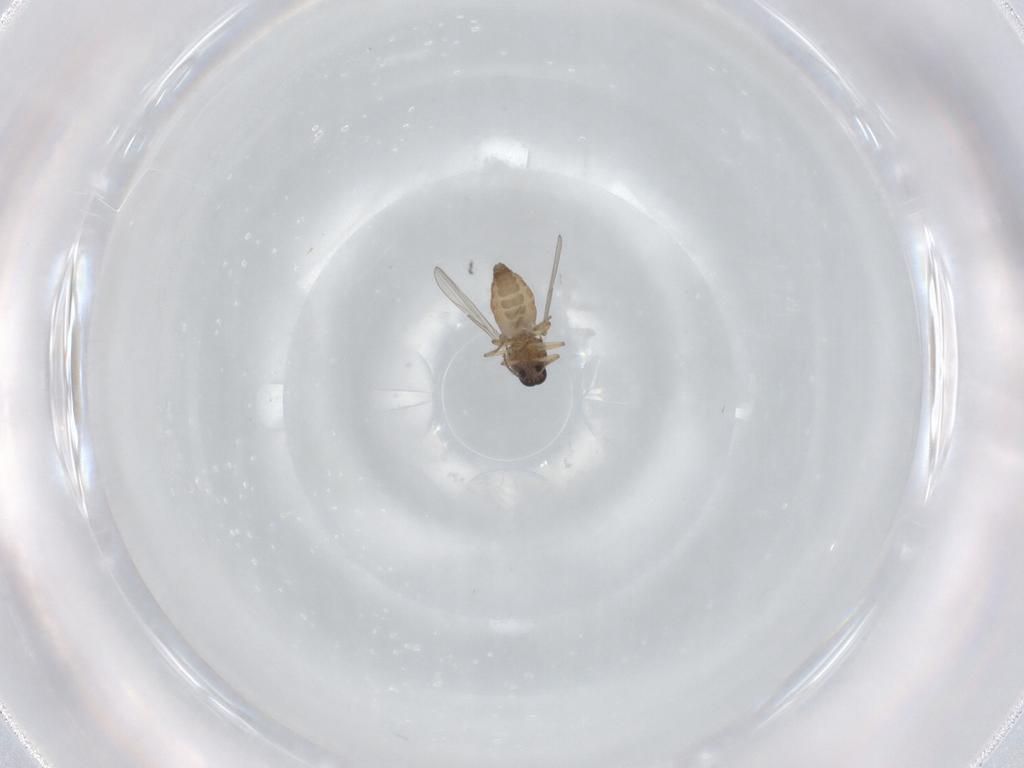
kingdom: Animalia
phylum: Arthropoda
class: Insecta
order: Diptera
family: Ceratopogonidae
